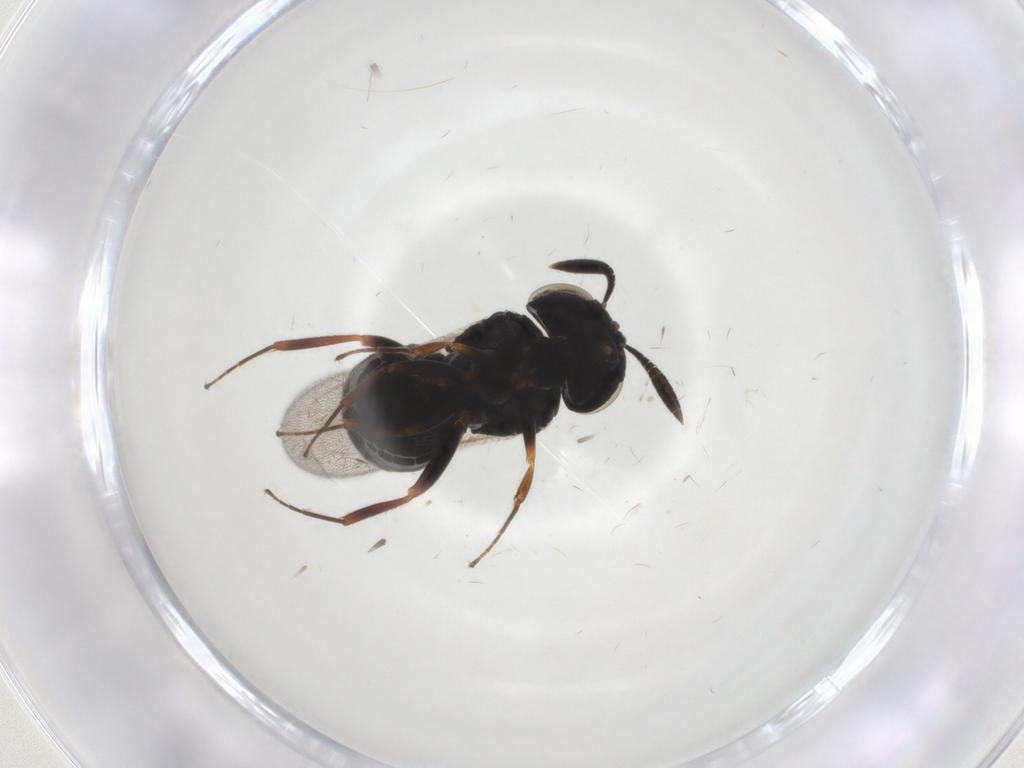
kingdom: Animalia
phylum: Arthropoda
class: Insecta
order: Hymenoptera
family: Scelionidae
